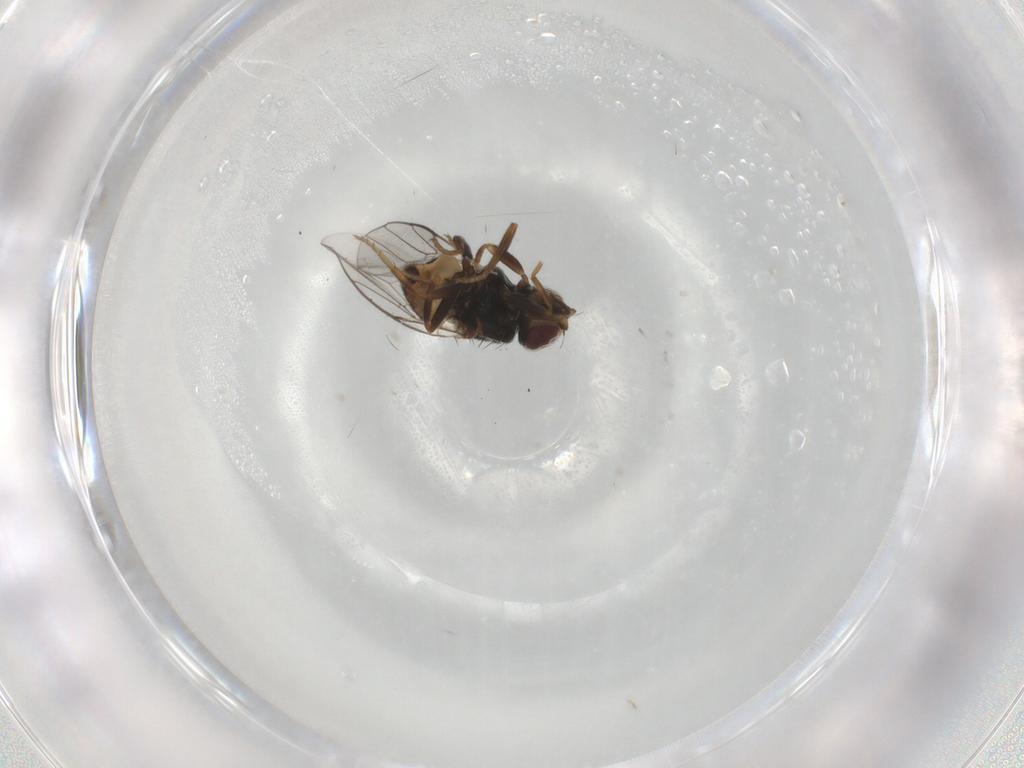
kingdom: Animalia
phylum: Arthropoda
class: Insecta
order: Diptera
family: Chloropidae
